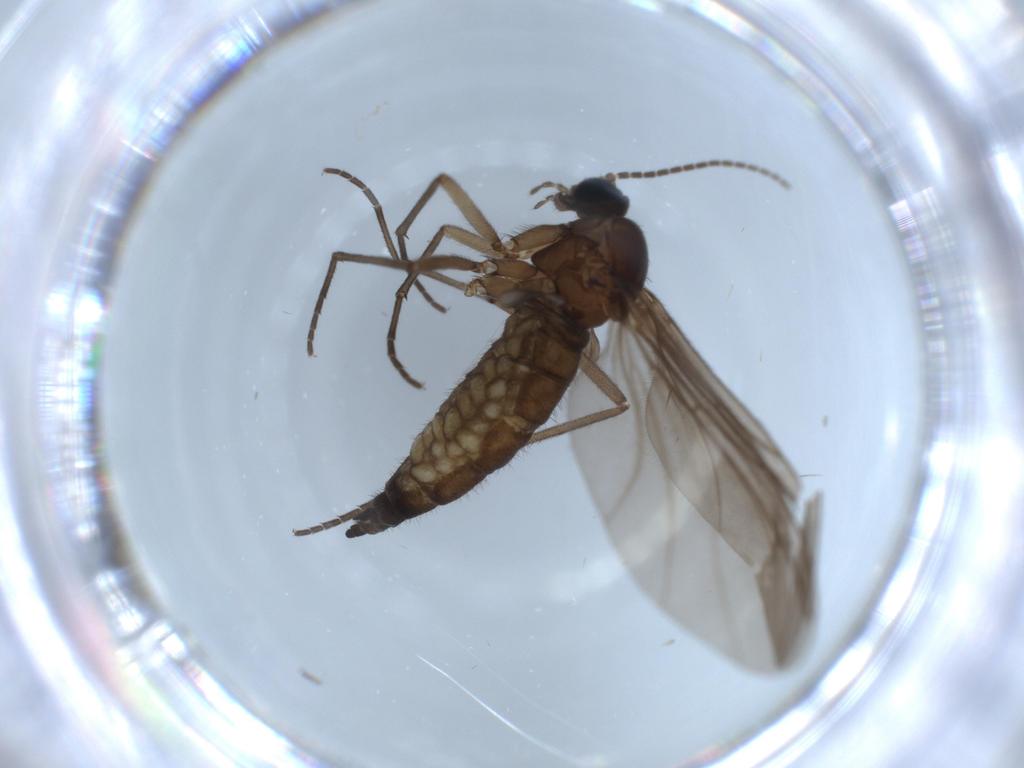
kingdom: Animalia
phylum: Arthropoda
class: Insecta
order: Diptera
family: Sciaridae
